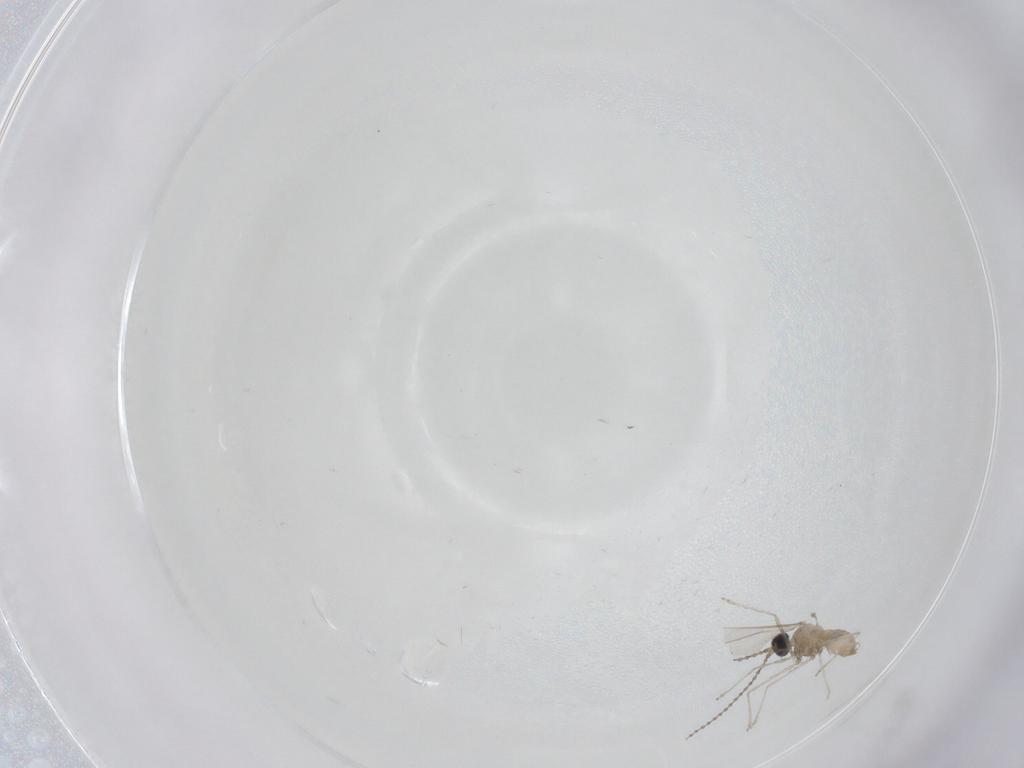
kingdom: Animalia
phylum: Arthropoda
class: Insecta
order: Diptera
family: Cecidomyiidae
